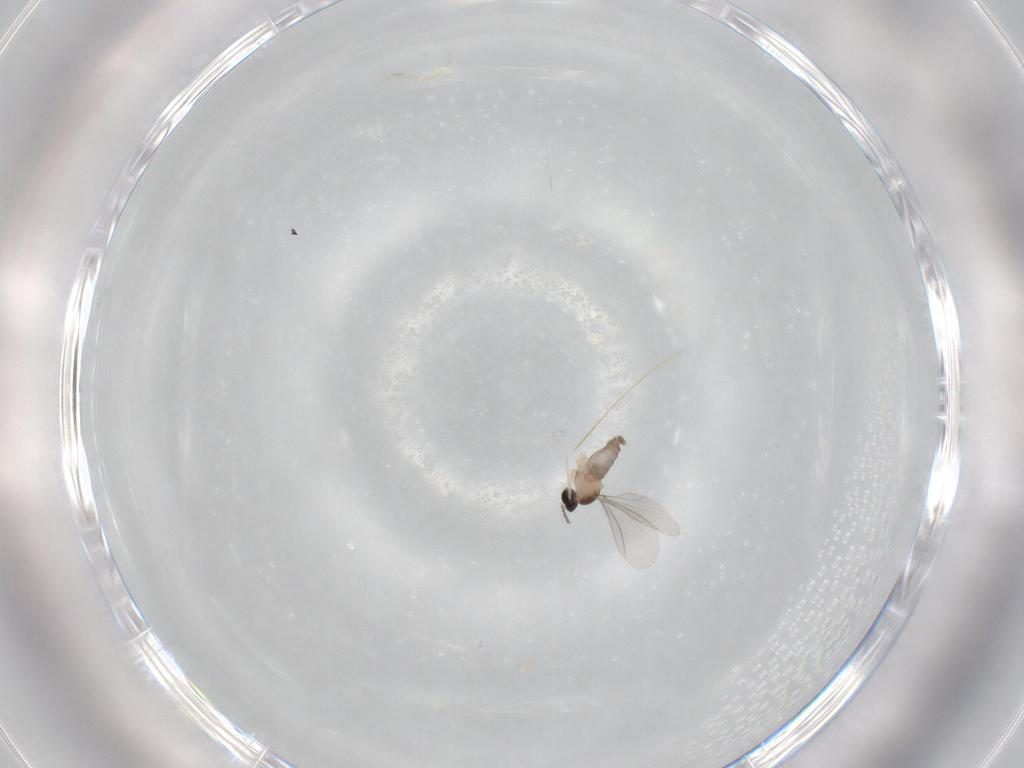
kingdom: Animalia
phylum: Arthropoda
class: Insecta
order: Diptera
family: Cecidomyiidae
